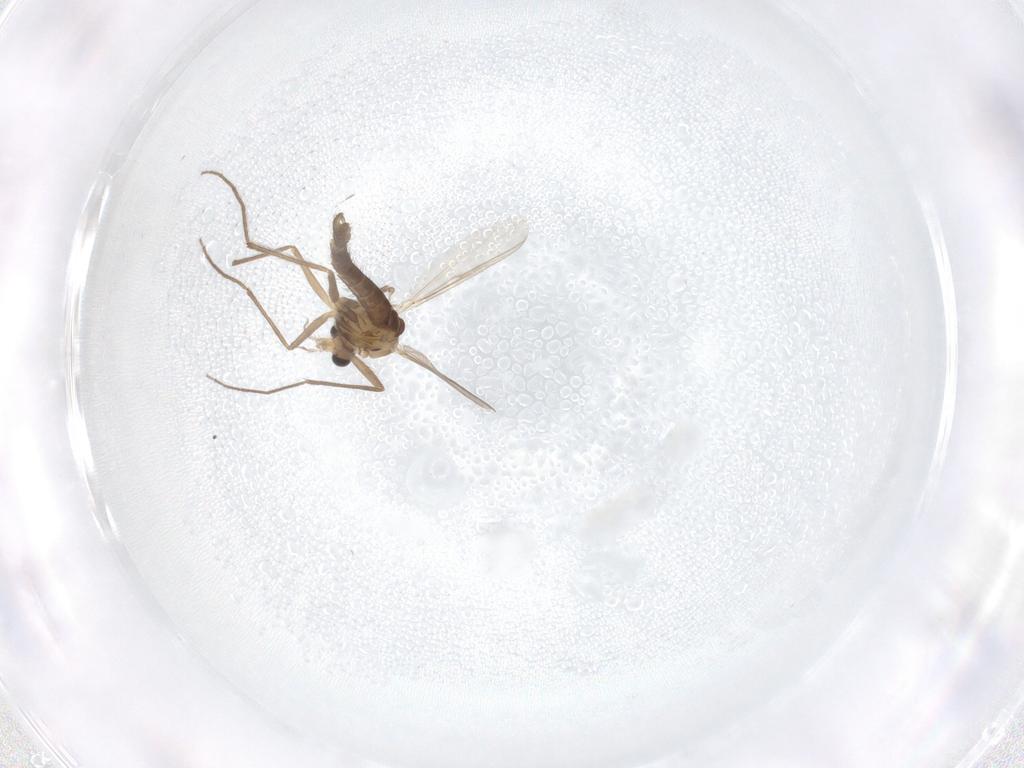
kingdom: Animalia
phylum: Arthropoda
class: Insecta
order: Diptera
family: Chironomidae
